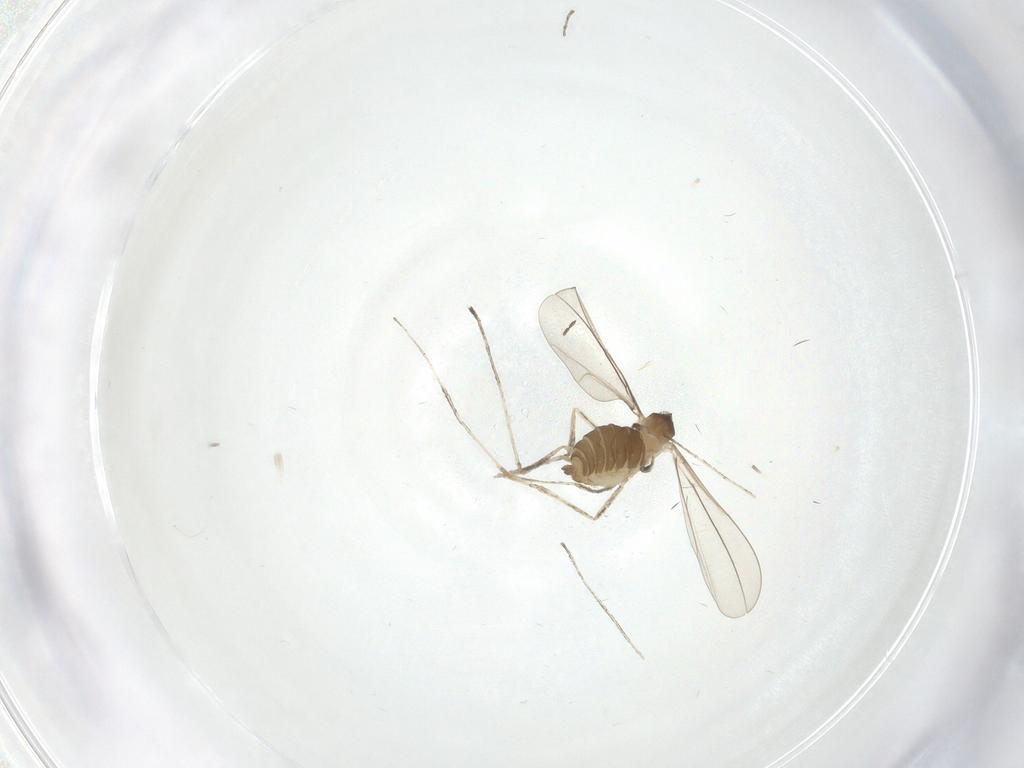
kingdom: Animalia
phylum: Arthropoda
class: Insecta
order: Diptera
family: Cecidomyiidae
